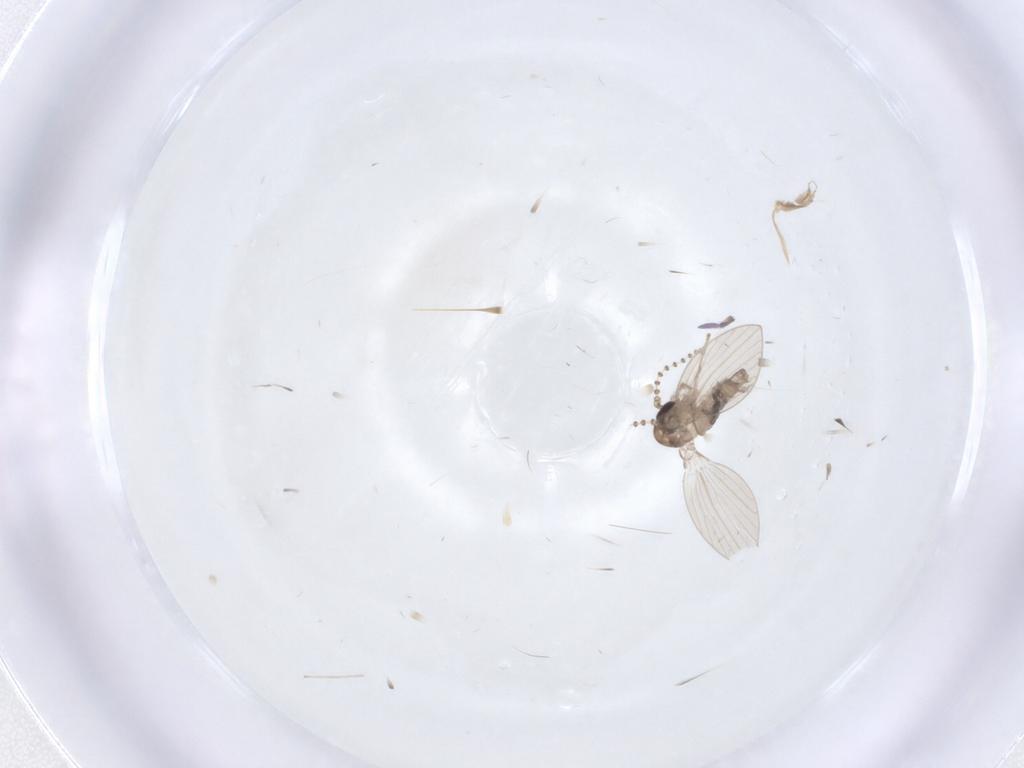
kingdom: Animalia
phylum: Arthropoda
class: Insecta
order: Diptera
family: Psychodidae
